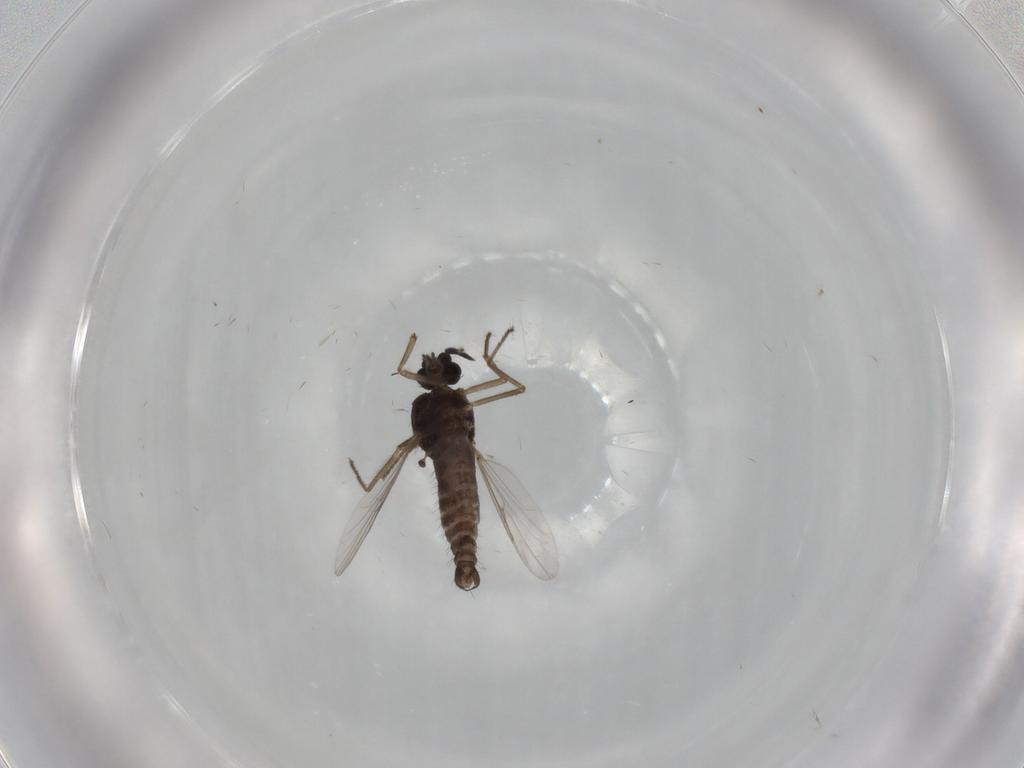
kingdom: Animalia
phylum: Arthropoda
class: Insecta
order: Diptera
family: Ceratopogonidae
